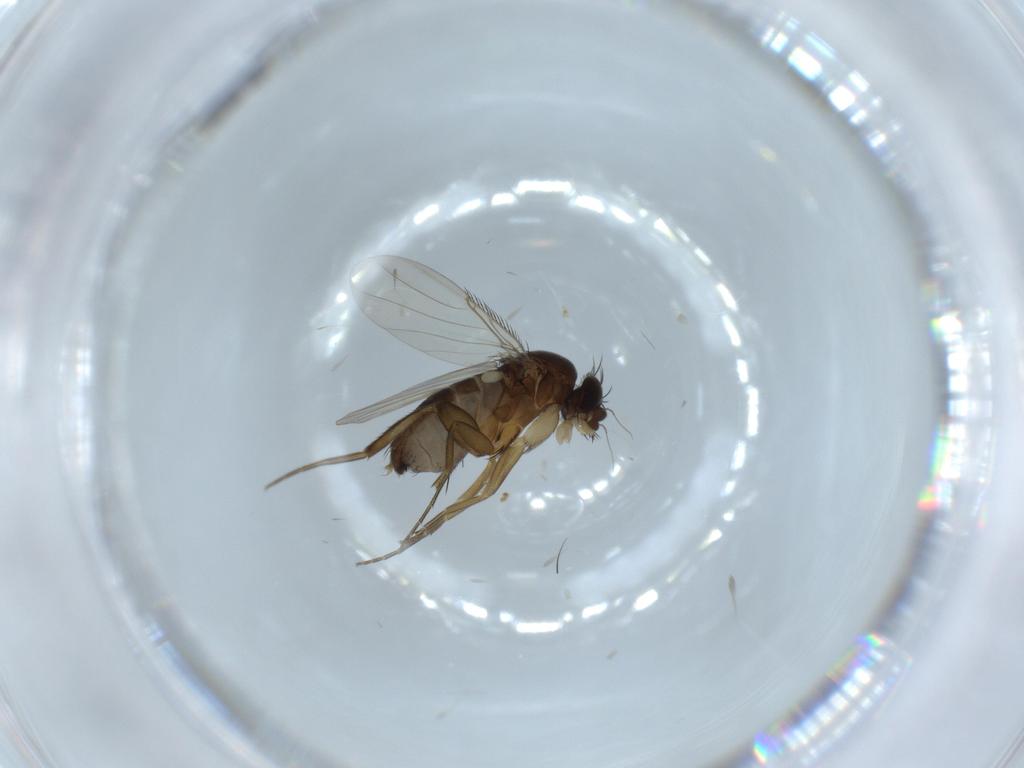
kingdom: Animalia
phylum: Arthropoda
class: Insecta
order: Diptera
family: Phoridae
